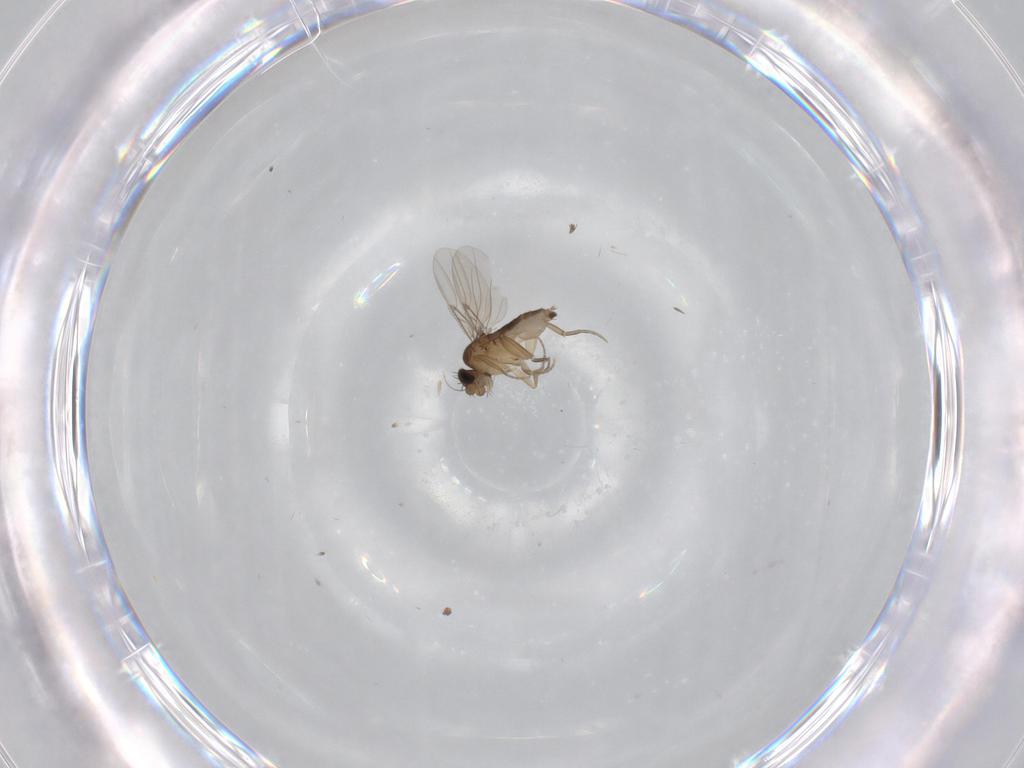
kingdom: Animalia
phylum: Arthropoda
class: Insecta
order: Diptera
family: Phoridae
